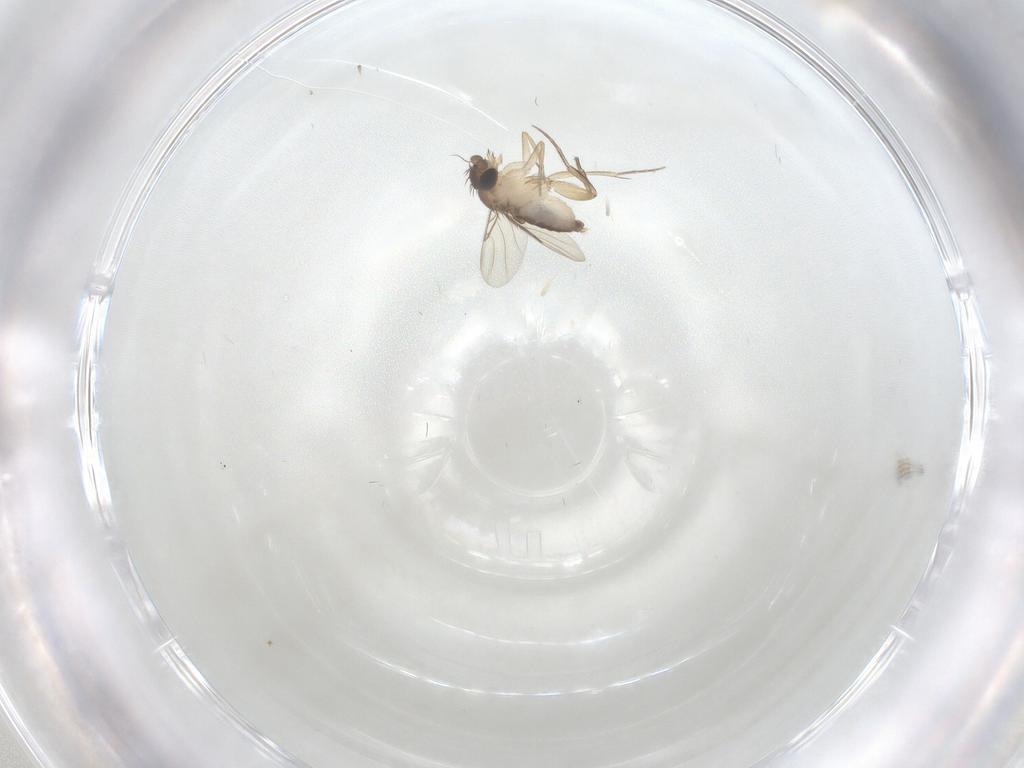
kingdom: Animalia
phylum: Arthropoda
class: Insecta
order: Diptera
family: Phoridae
